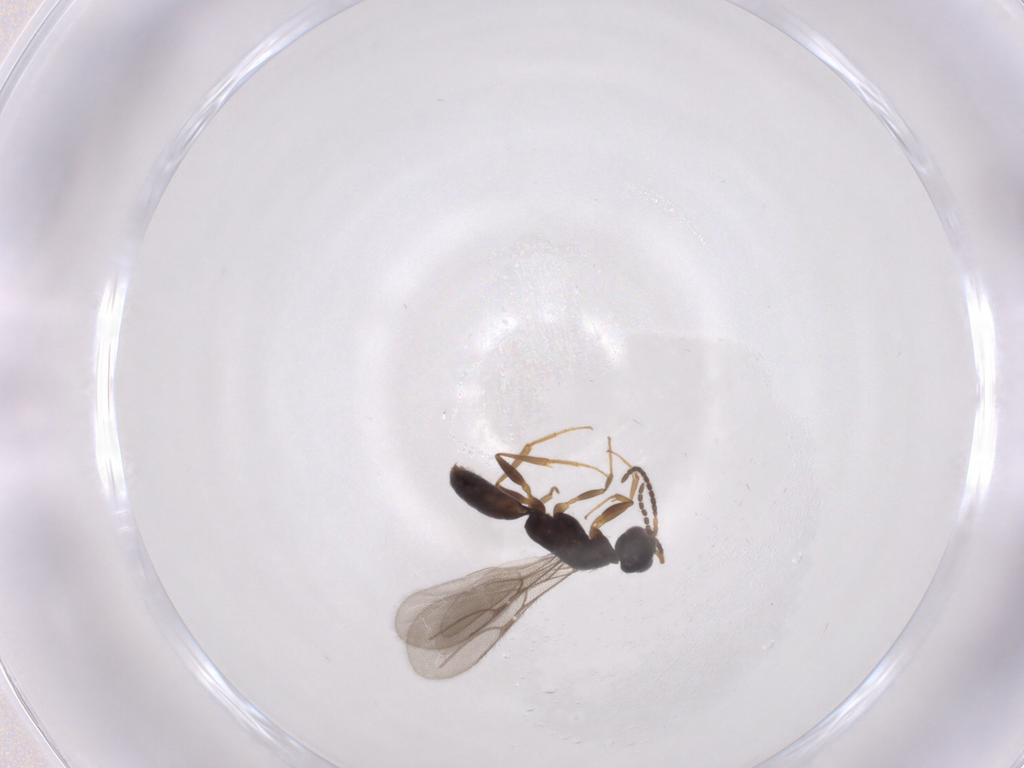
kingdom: Animalia
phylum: Arthropoda
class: Insecta
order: Hymenoptera
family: Bethylidae
